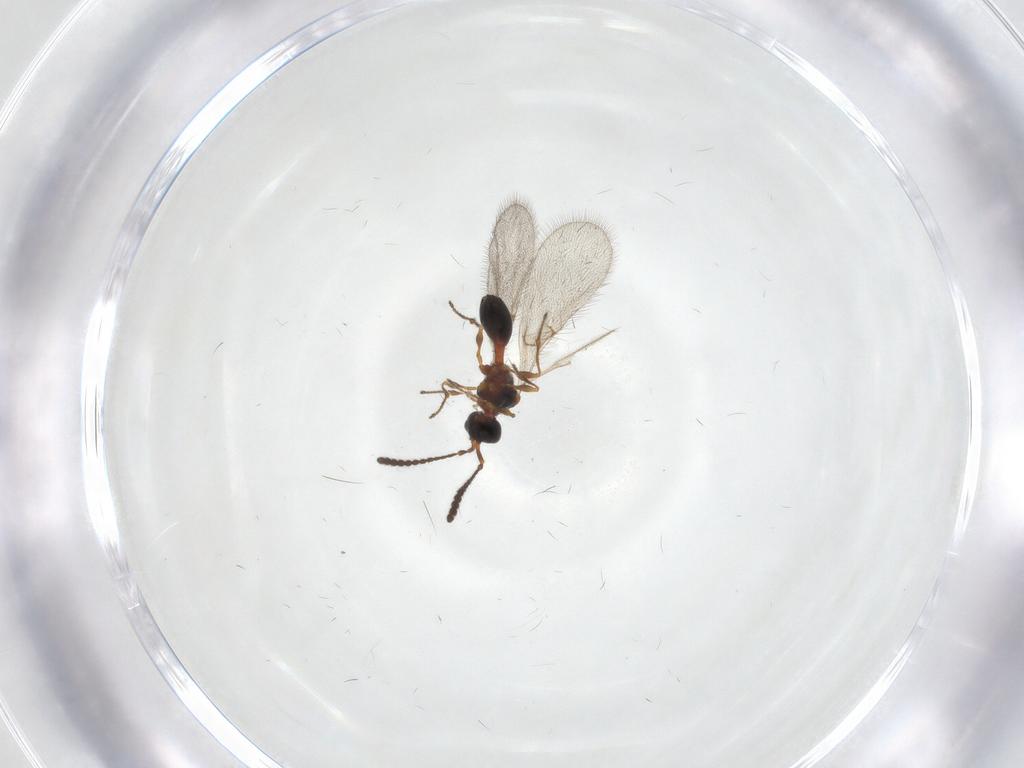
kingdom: Animalia
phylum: Arthropoda
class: Insecta
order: Hymenoptera
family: Diapriidae
